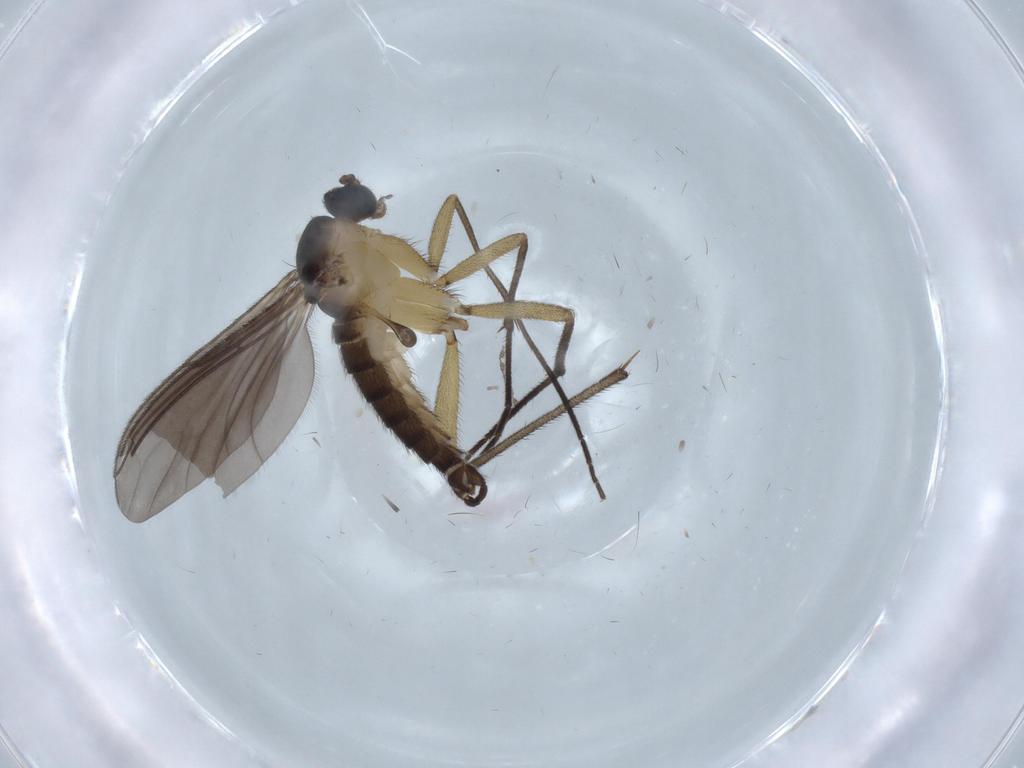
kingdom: Animalia
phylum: Arthropoda
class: Insecta
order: Diptera
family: Sciaridae
